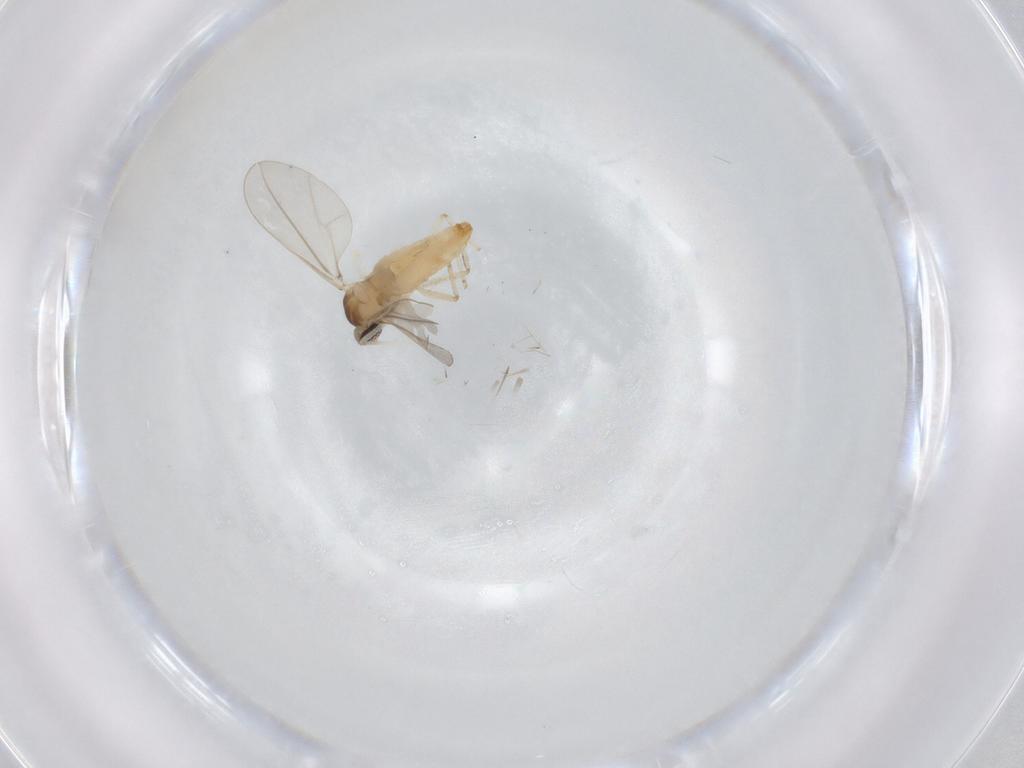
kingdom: Animalia
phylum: Arthropoda
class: Insecta
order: Diptera
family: Cecidomyiidae
